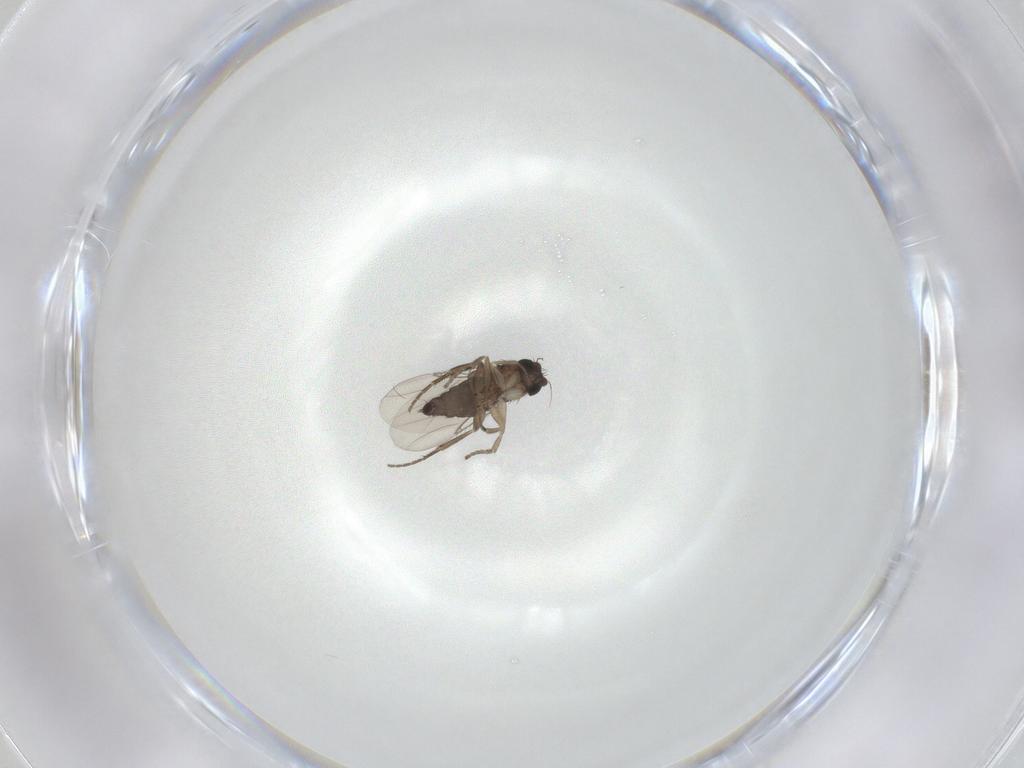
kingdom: Animalia
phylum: Arthropoda
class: Insecta
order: Diptera
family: Phoridae
